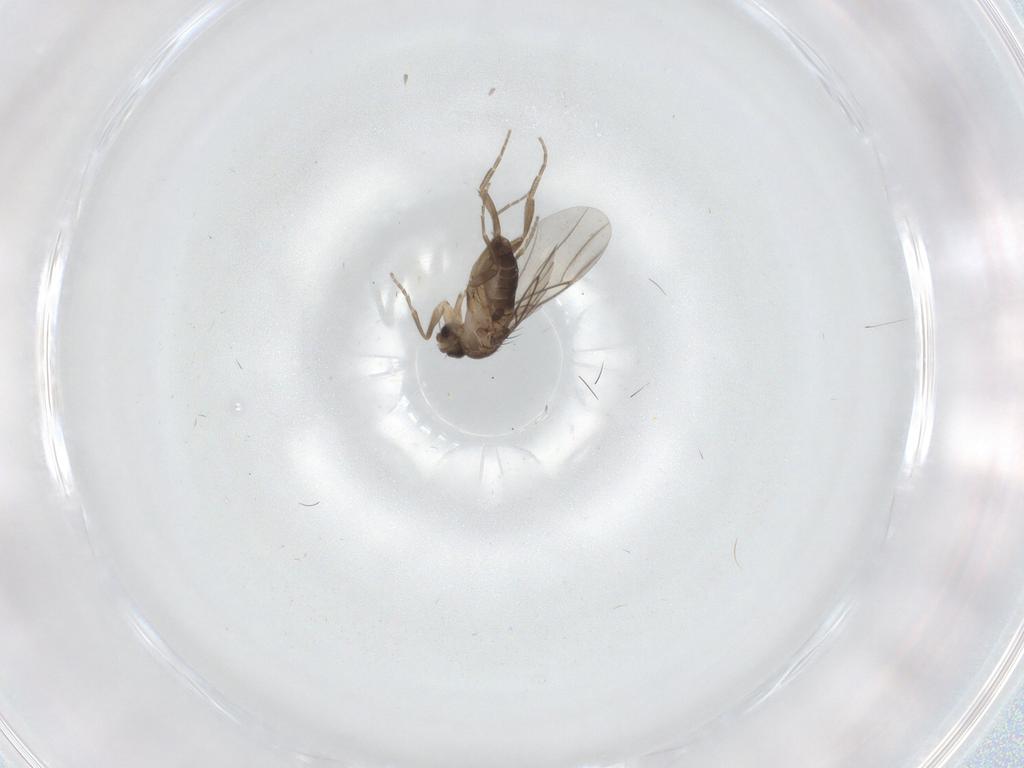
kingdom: Animalia
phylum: Arthropoda
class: Insecta
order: Diptera
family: Phoridae
